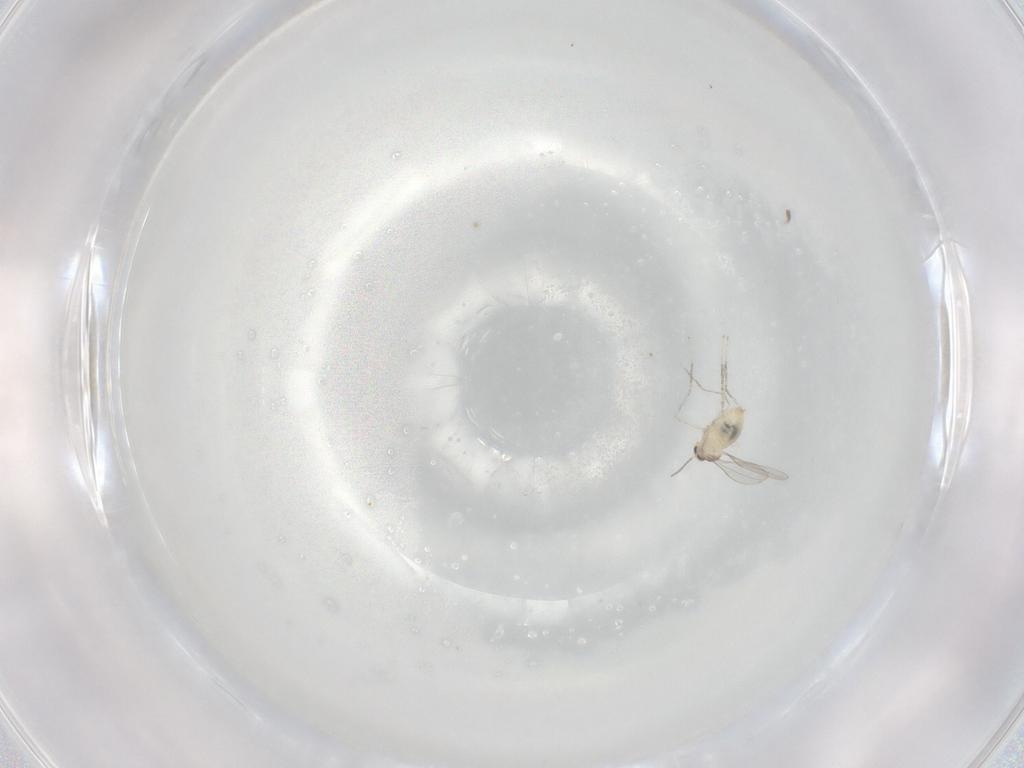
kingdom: Animalia
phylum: Arthropoda
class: Insecta
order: Diptera
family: Cecidomyiidae
